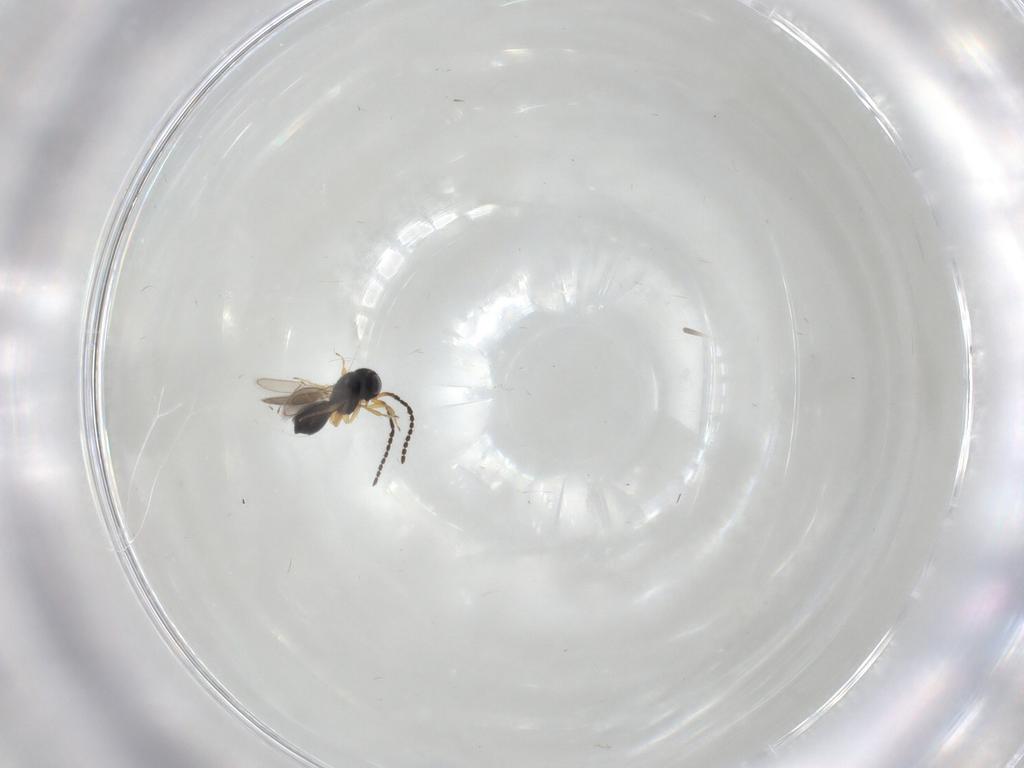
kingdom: Animalia
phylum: Arthropoda
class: Insecta
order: Hymenoptera
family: Scelionidae
